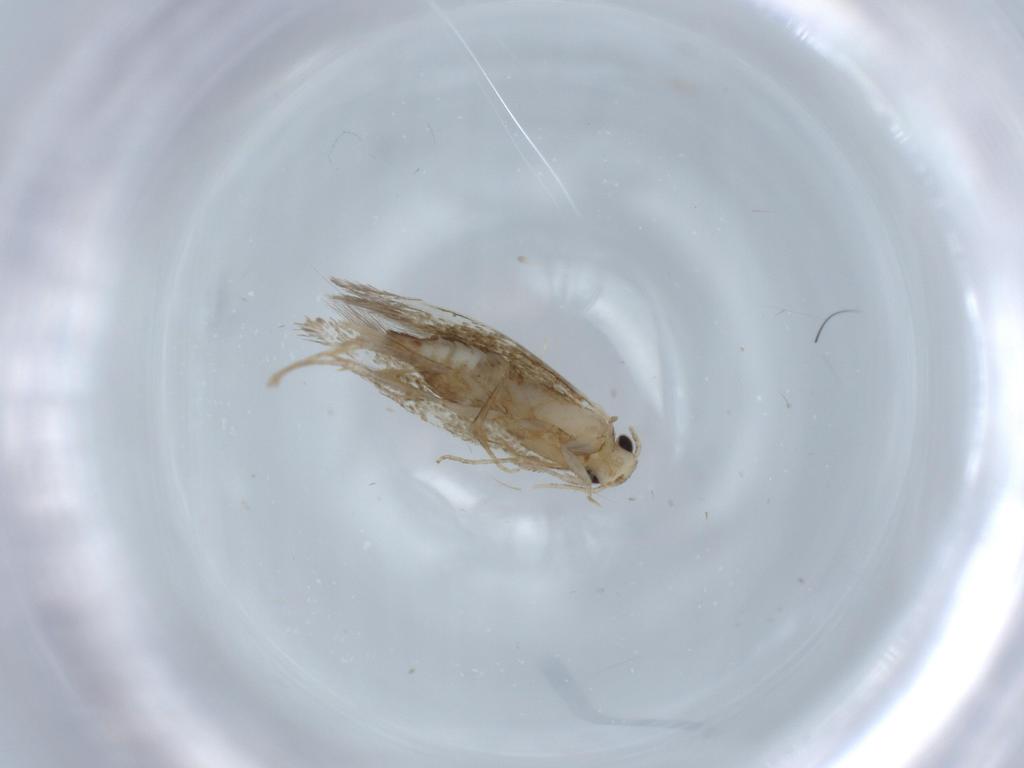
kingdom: Animalia
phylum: Arthropoda
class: Insecta
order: Lepidoptera
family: Tineidae
